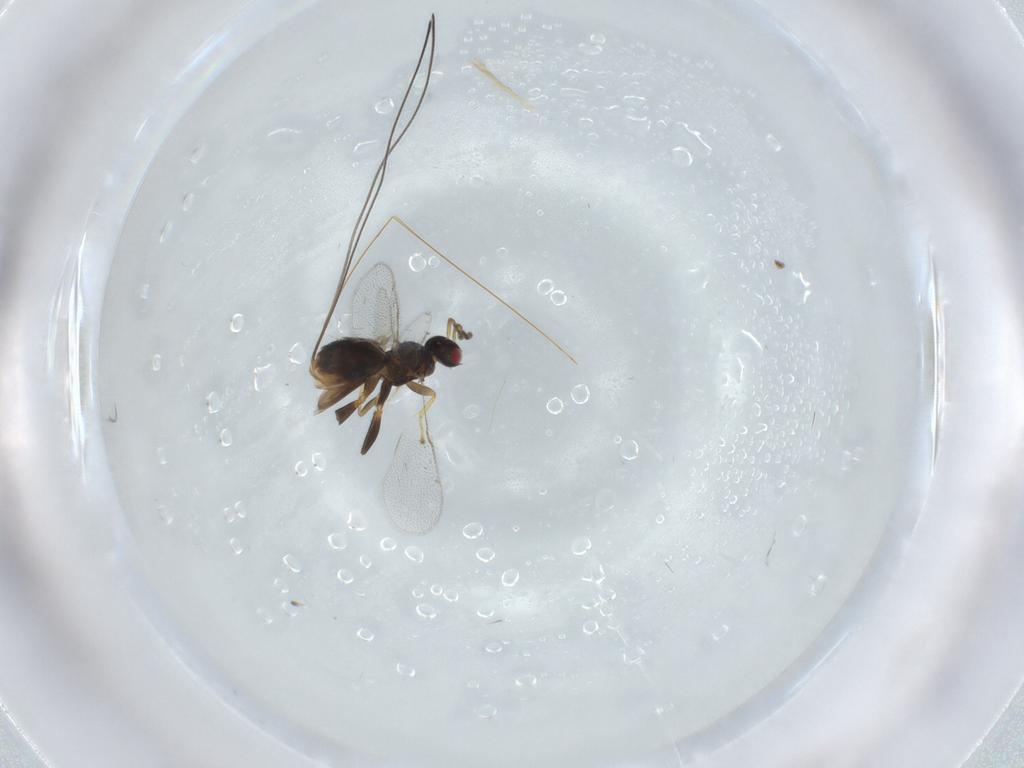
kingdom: Animalia
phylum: Arthropoda
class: Insecta
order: Hymenoptera
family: Torymidae
